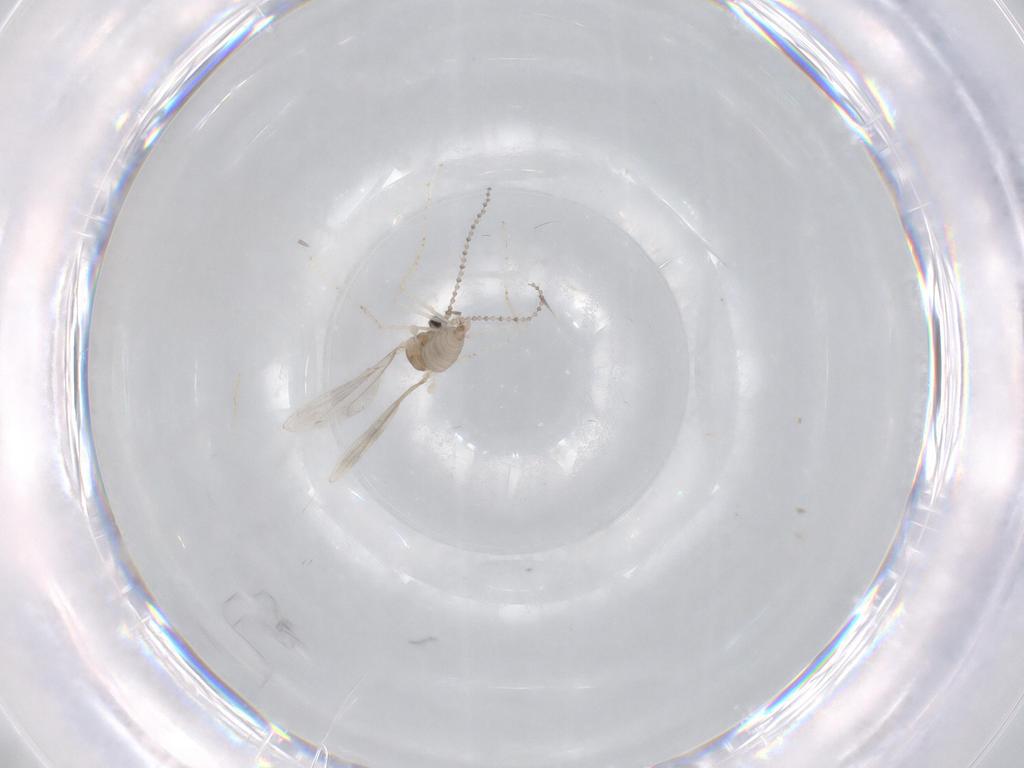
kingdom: Animalia
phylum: Arthropoda
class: Insecta
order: Diptera
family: Cecidomyiidae
